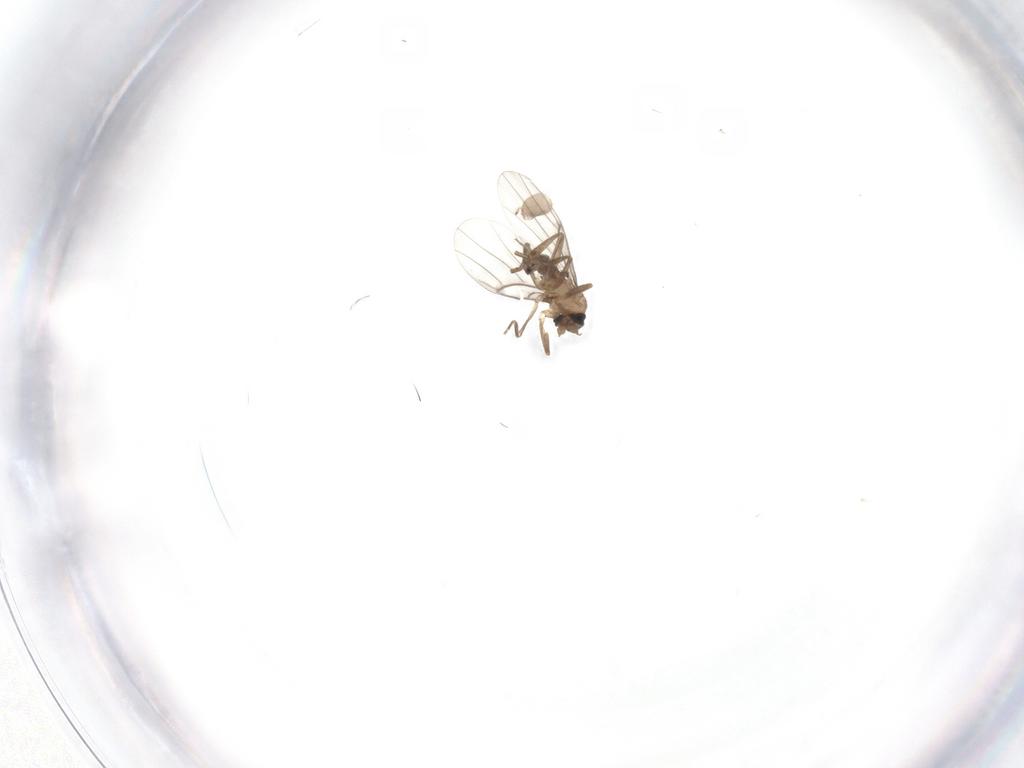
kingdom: Animalia
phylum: Arthropoda
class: Insecta
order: Diptera
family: Mycetophilidae
